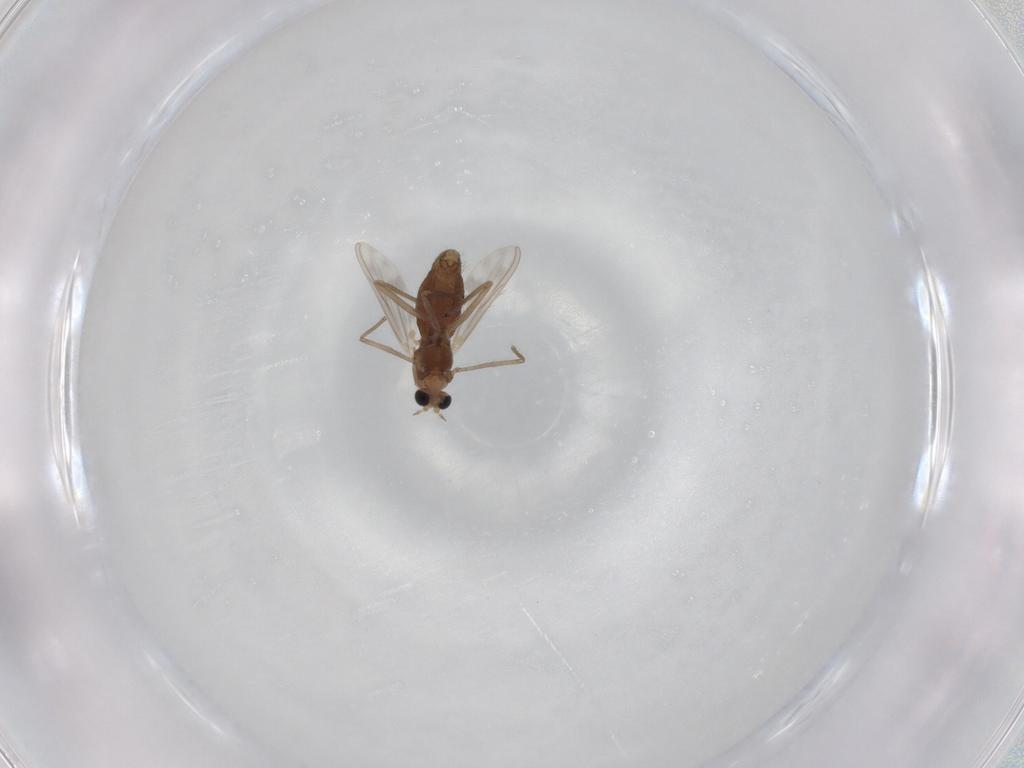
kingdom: Animalia
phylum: Arthropoda
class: Insecta
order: Diptera
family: Chironomidae
